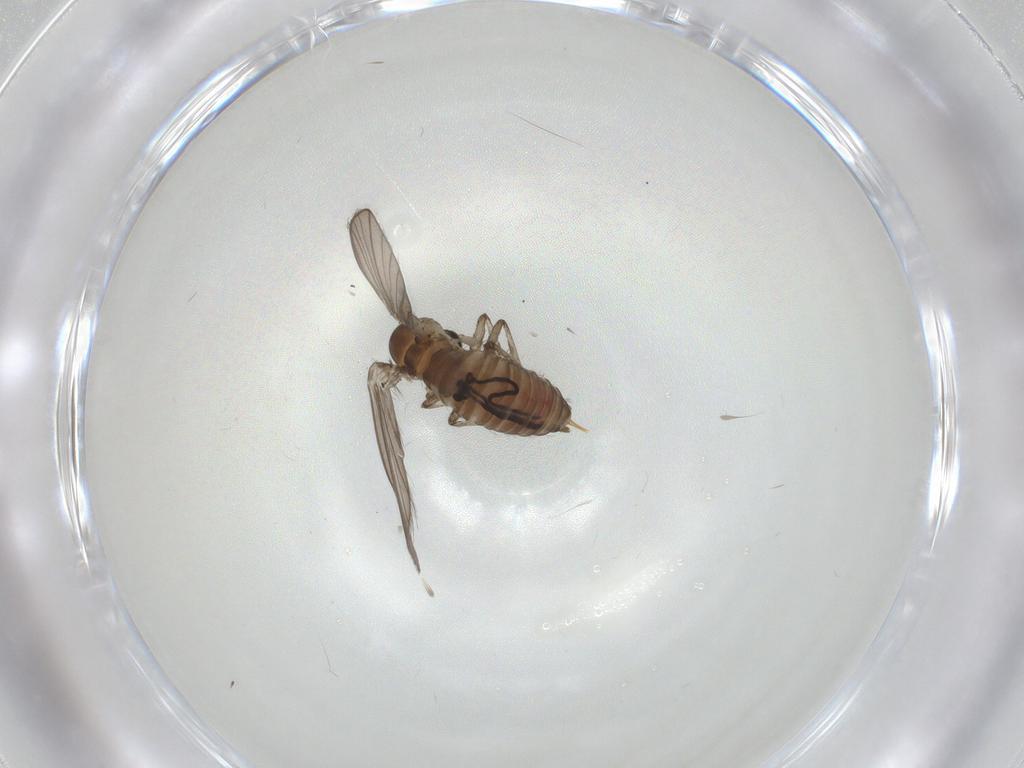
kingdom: Animalia
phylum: Arthropoda
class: Insecta
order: Diptera
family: Psychodidae
